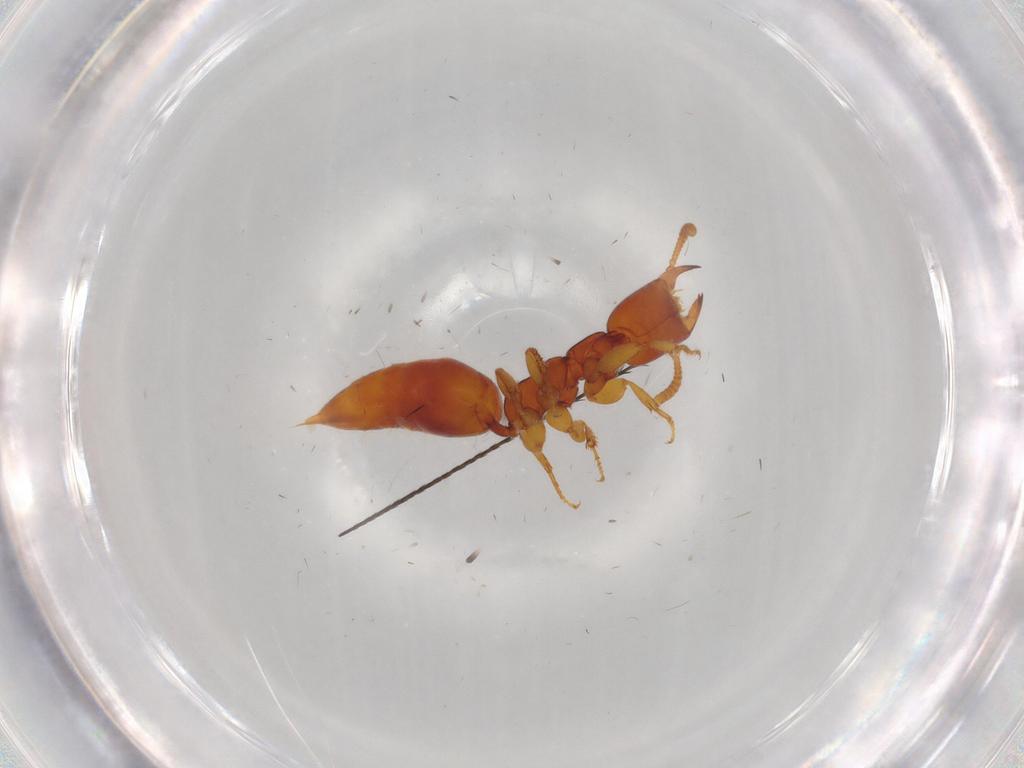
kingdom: Animalia
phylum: Arthropoda
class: Insecta
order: Hymenoptera
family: Bethylidae
